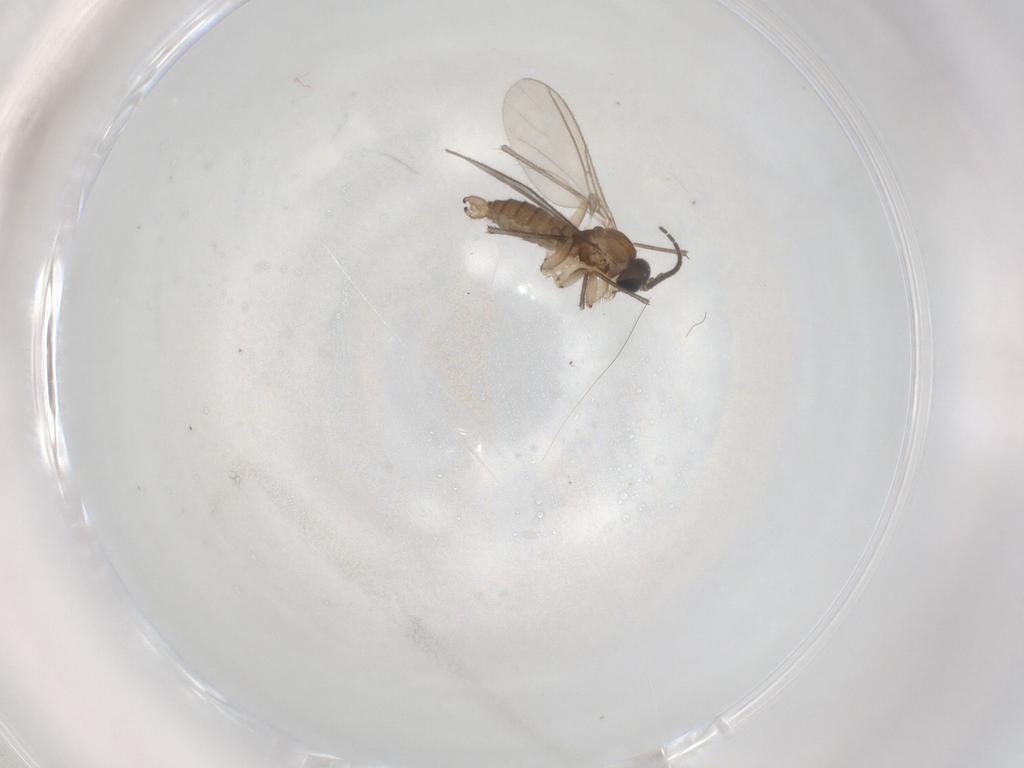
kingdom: Animalia
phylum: Arthropoda
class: Insecta
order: Diptera
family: Sciaridae
